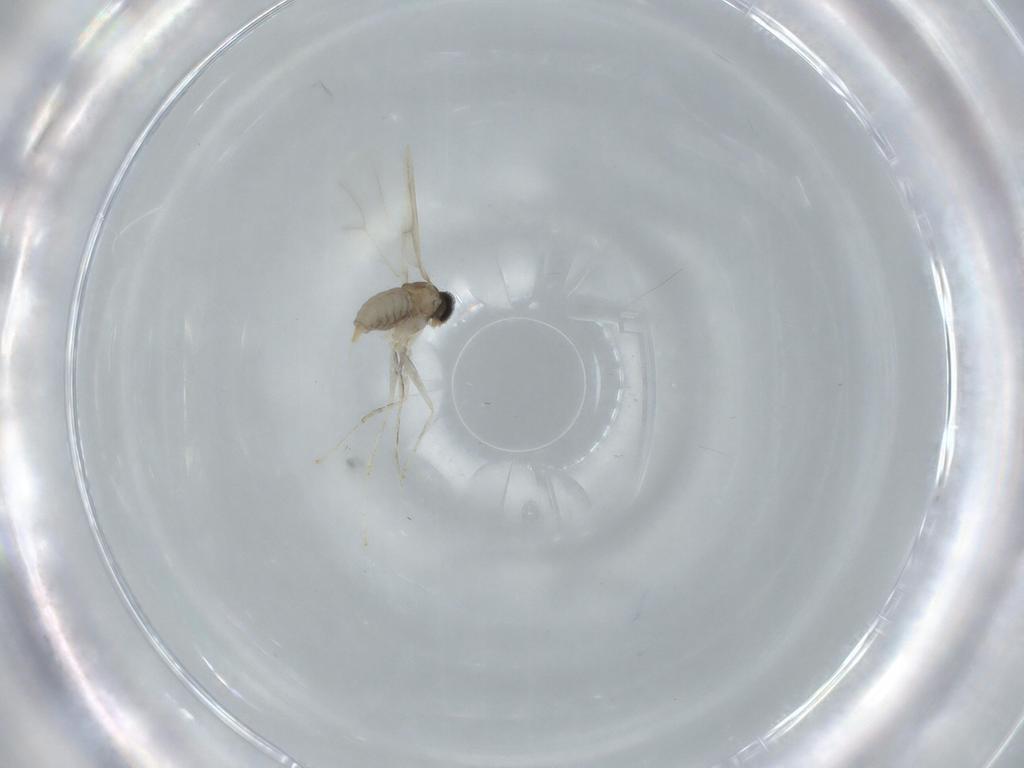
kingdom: Animalia
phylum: Arthropoda
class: Insecta
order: Diptera
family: Cecidomyiidae
